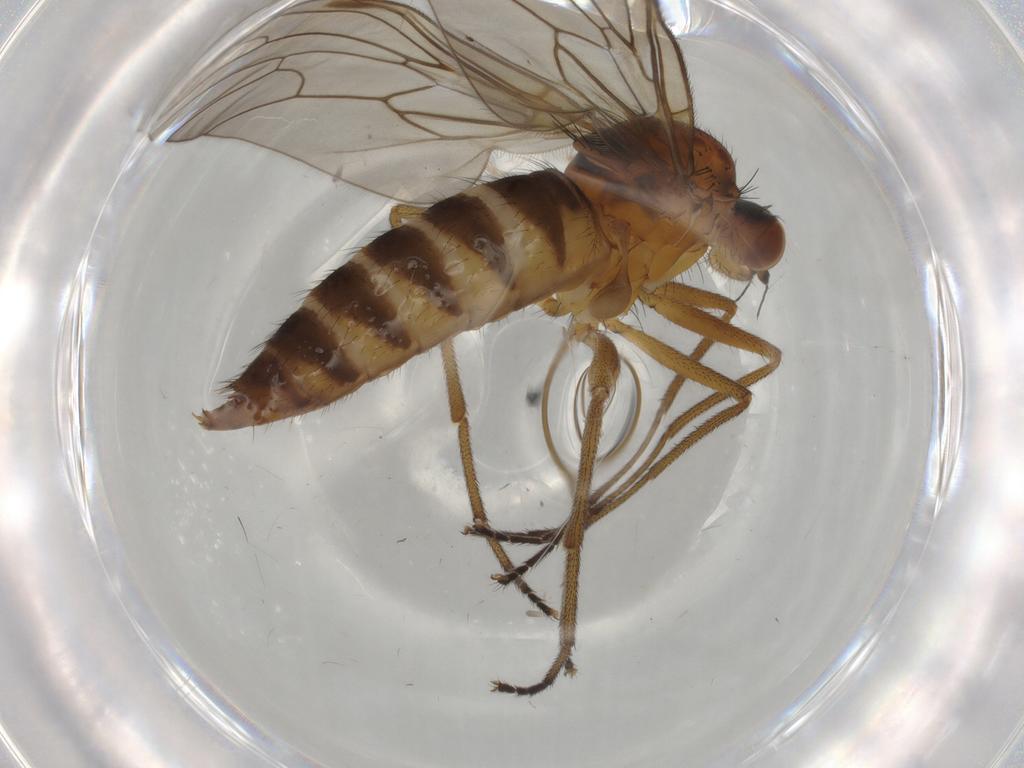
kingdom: Animalia
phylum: Arthropoda
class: Insecta
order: Diptera
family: Brachystomatidae
